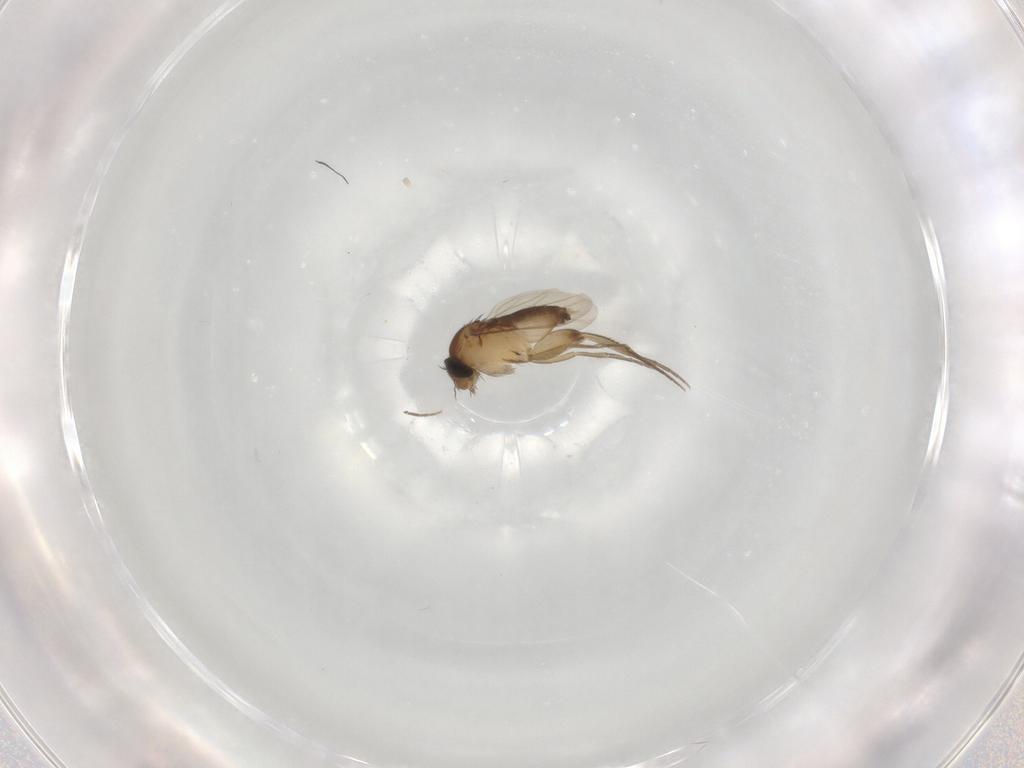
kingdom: Animalia
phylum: Arthropoda
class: Insecta
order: Diptera
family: Phoridae
